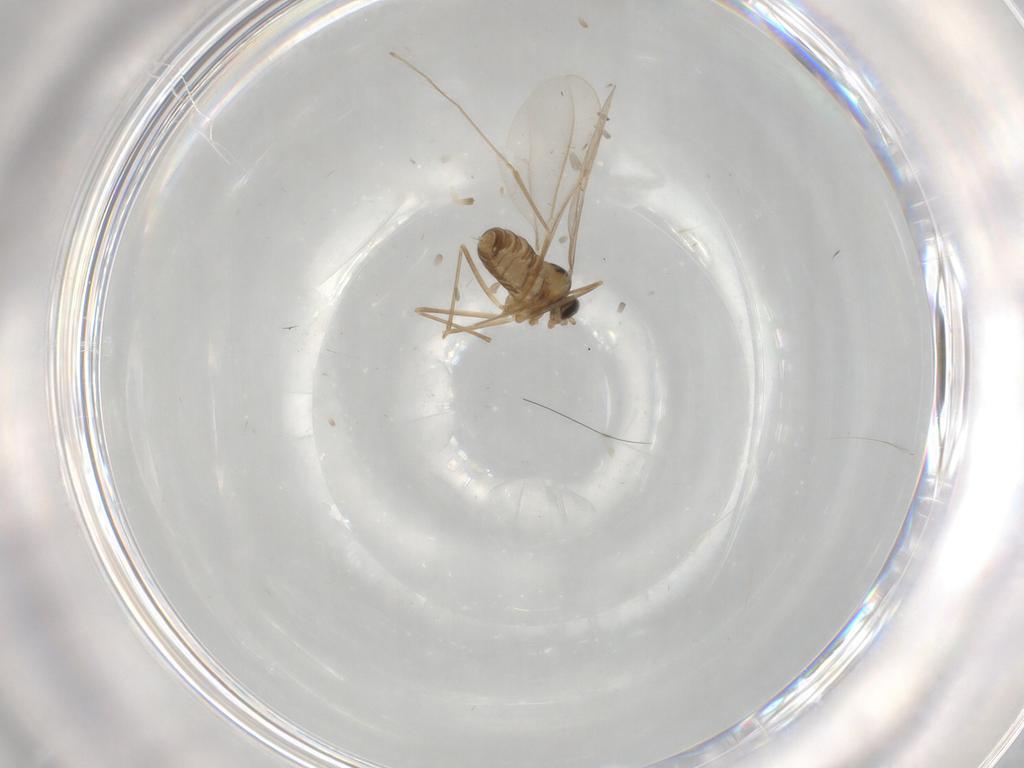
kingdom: Animalia
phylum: Arthropoda
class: Insecta
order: Diptera
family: Cecidomyiidae
